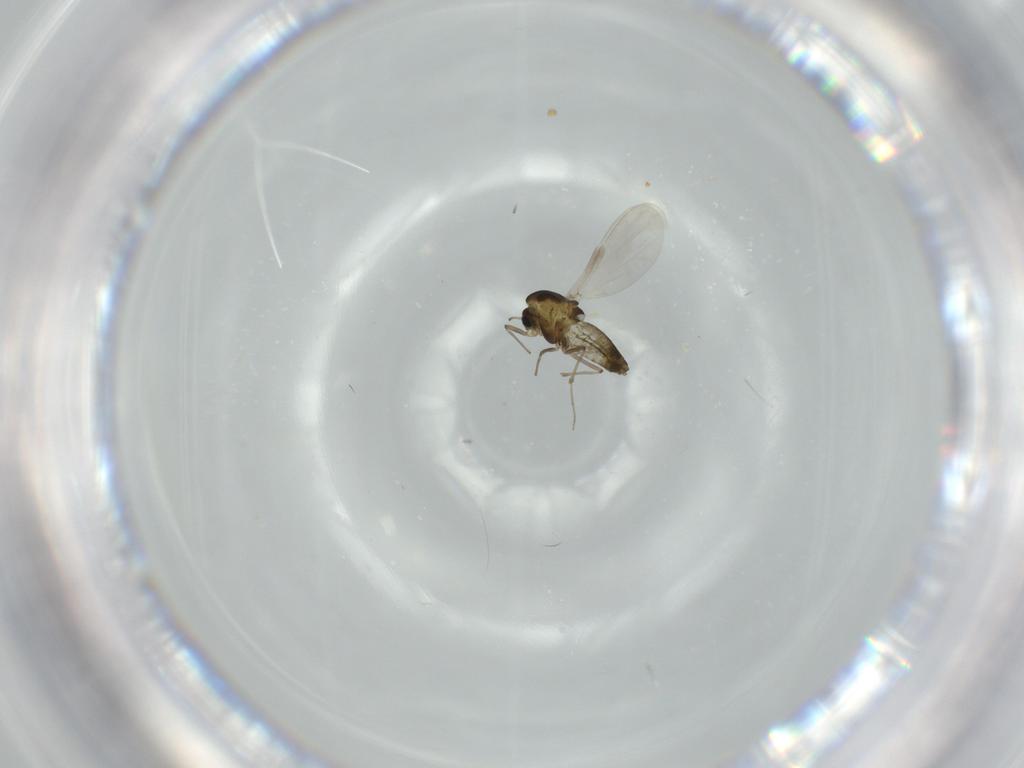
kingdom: Animalia
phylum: Arthropoda
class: Insecta
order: Diptera
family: Chironomidae
